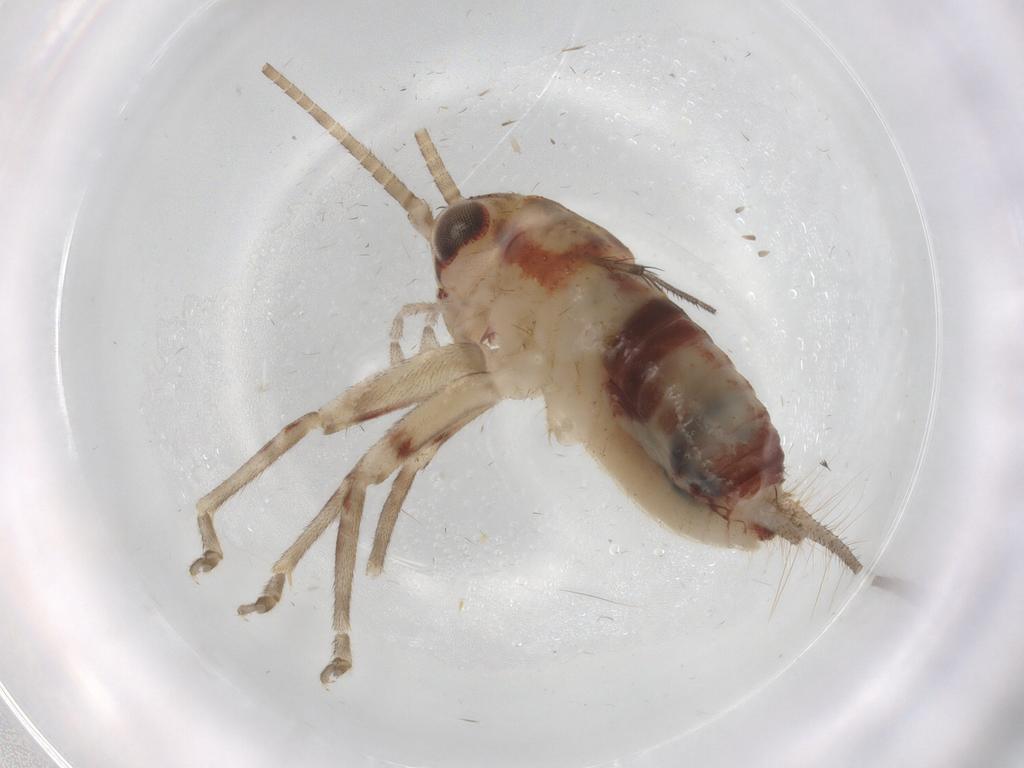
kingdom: Animalia
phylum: Arthropoda
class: Insecta
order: Orthoptera
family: Trigonidiidae
